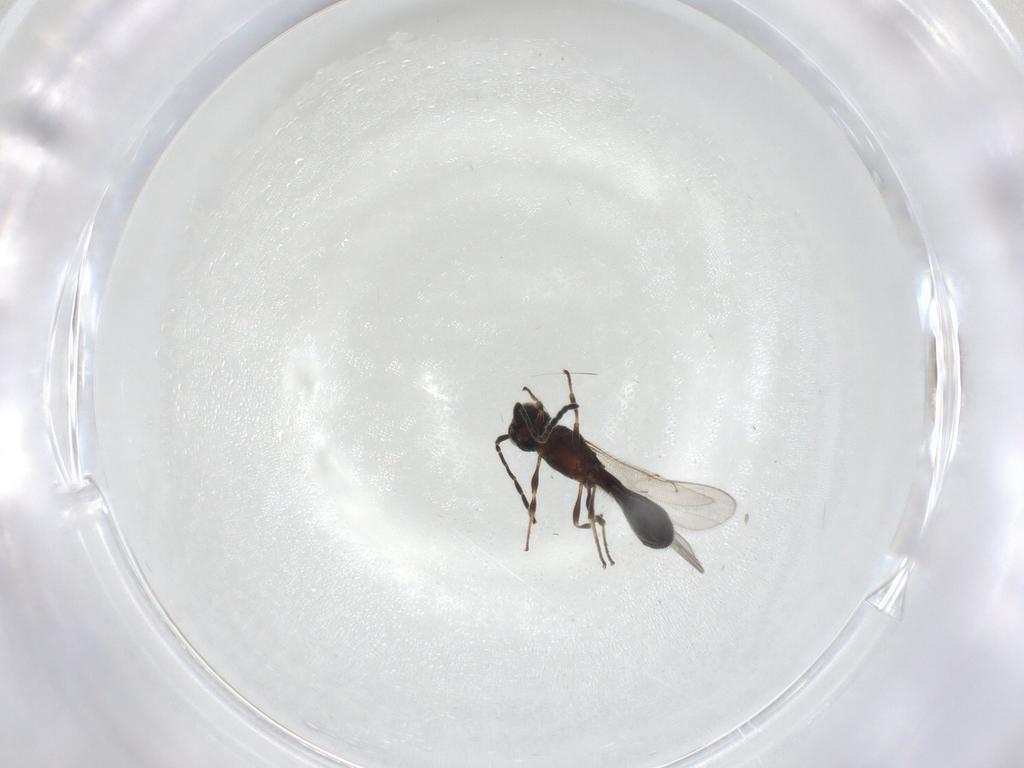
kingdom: Animalia
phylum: Arthropoda
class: Insecta
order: Hymenoptera
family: Scelionidae
